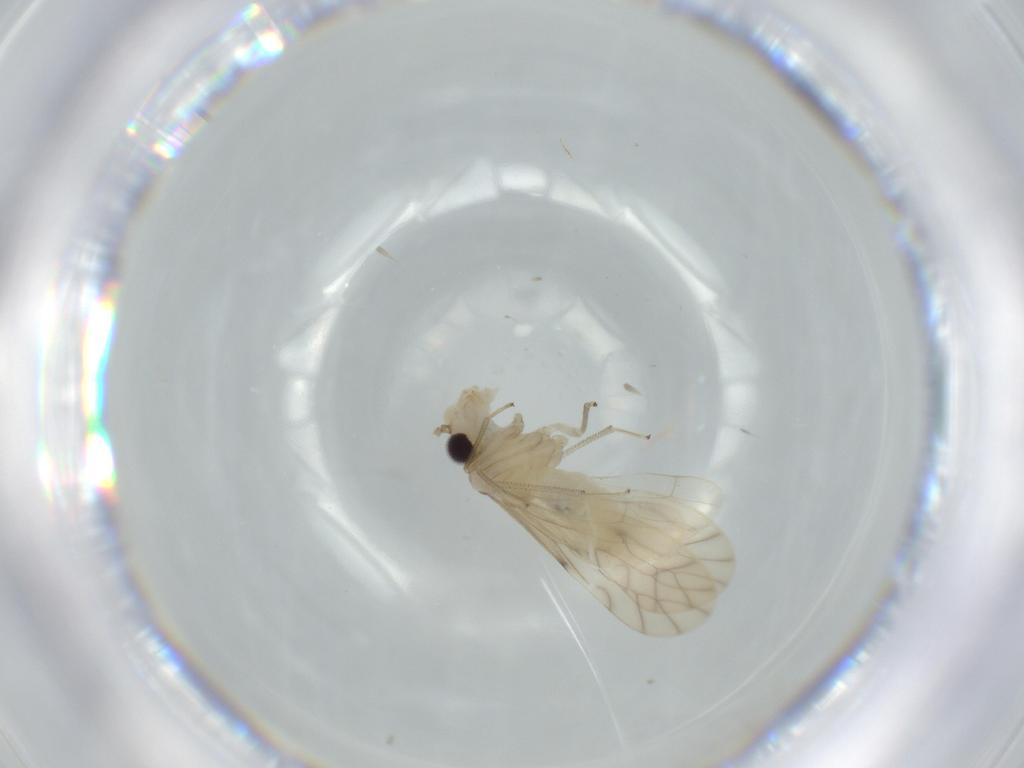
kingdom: Animalia
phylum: Arthropoda
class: Insecta
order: Psocodea
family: Caeciliusidae
